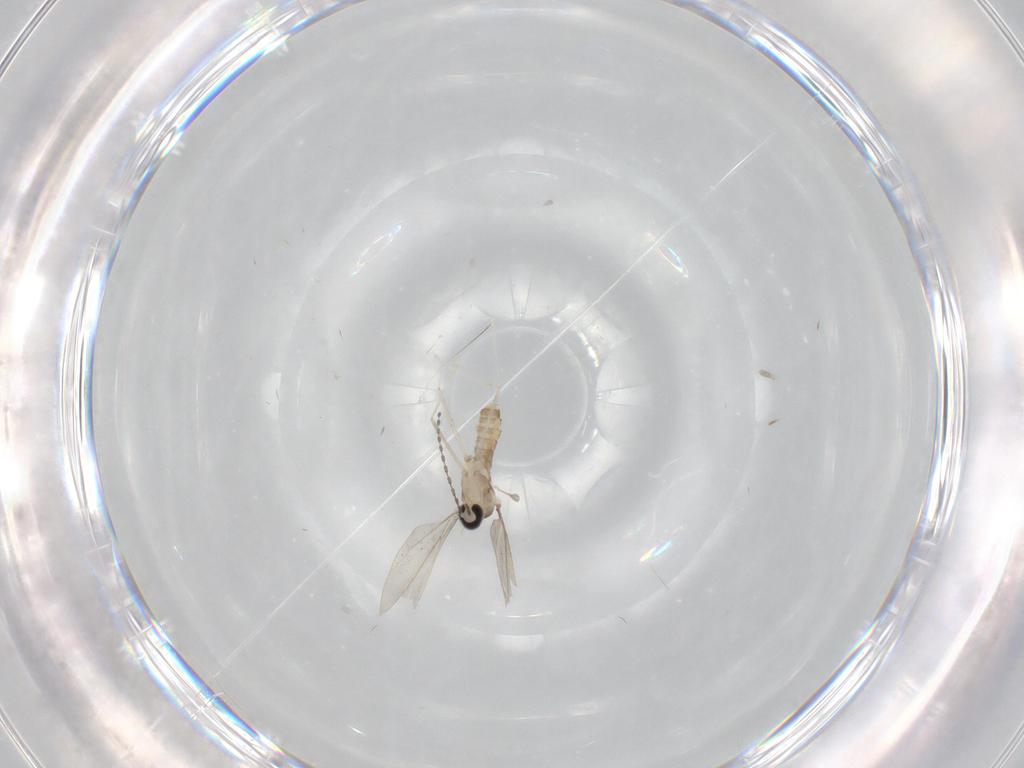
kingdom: Animalia
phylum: Arthropoda
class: Insecta
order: Diptera
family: Cecidomyiidae
